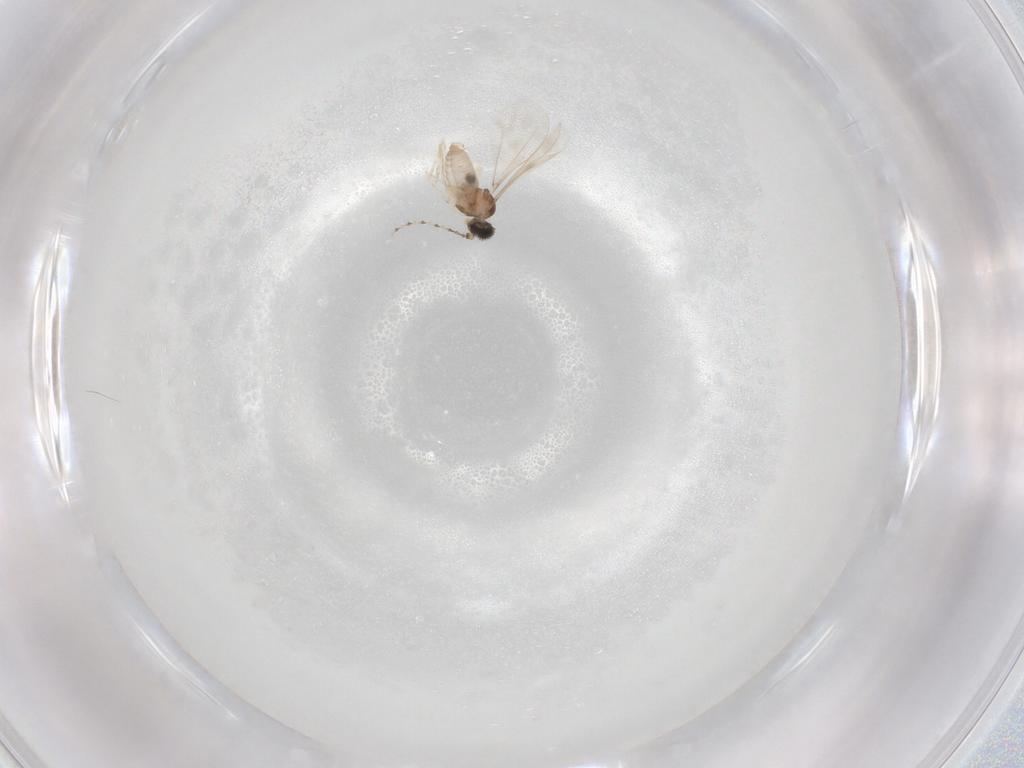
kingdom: Animalia
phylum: Arthropoda
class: Insecta
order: Diptera
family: Cecidomyiidae
